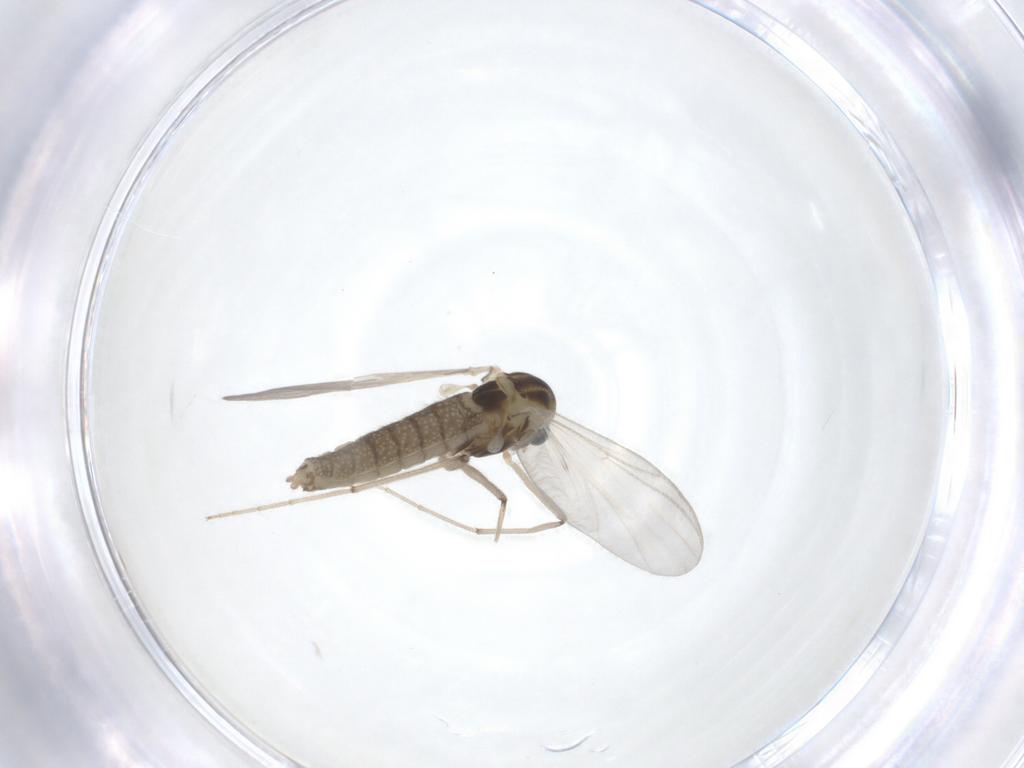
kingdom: Animalia
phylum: Arthropoda
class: Insecta
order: Diptera
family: Chironomidae
